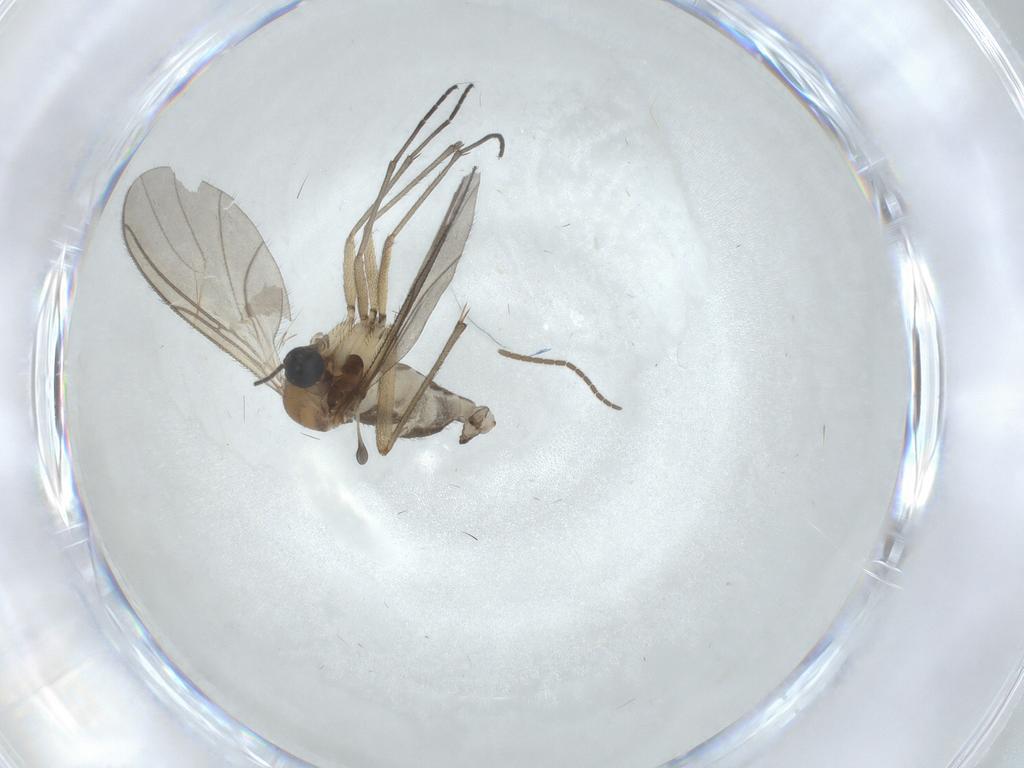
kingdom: Animalia
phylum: Arthropoda
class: Insecta
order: Diptera
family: Sciaridae
